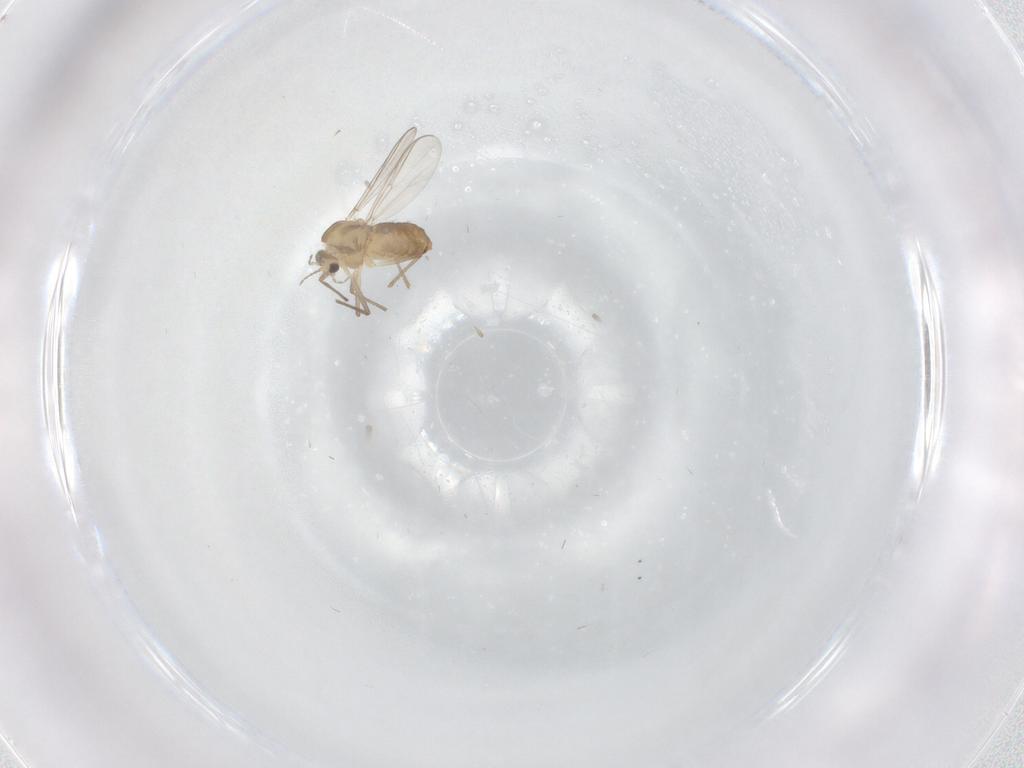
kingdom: Animalia
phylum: Arthropoda
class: Insecta
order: Diptera
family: Chironomidae
